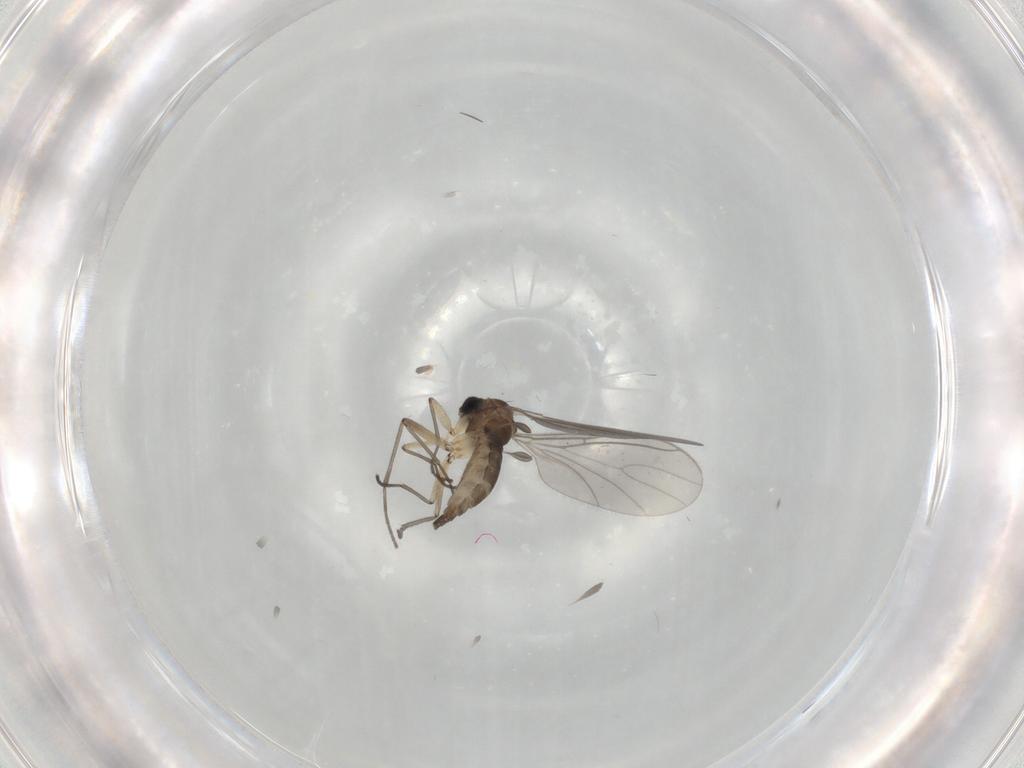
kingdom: Animalia
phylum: Arthropoda
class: Insecta
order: Diptera
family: Sciaridae
